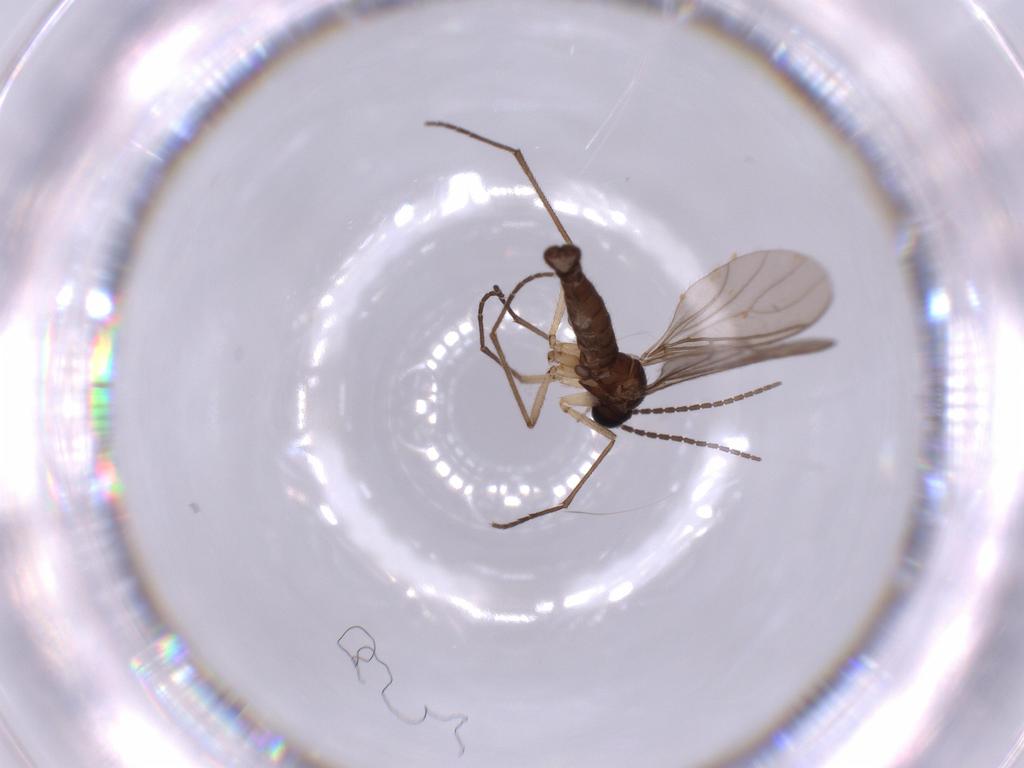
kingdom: Animalia
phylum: Arthropoda
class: Insecta
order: Diptera
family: Sciaridae
